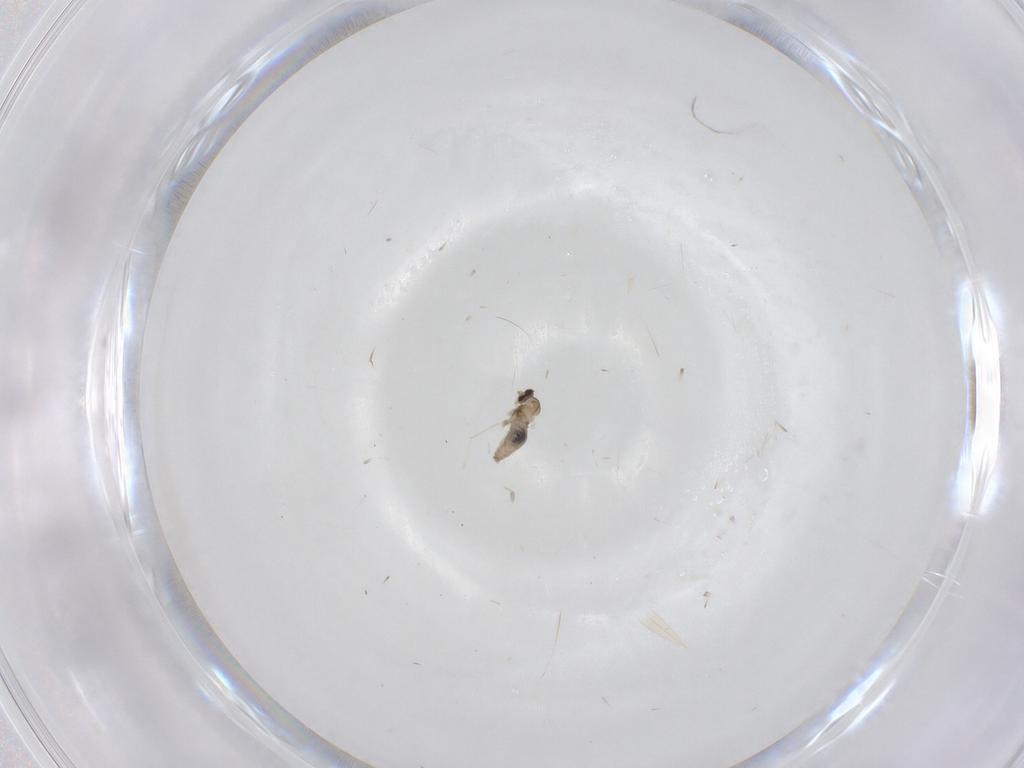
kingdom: Animalia
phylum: Arthropoda
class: Insecta
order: Diptera
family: Cecidomyiidae
